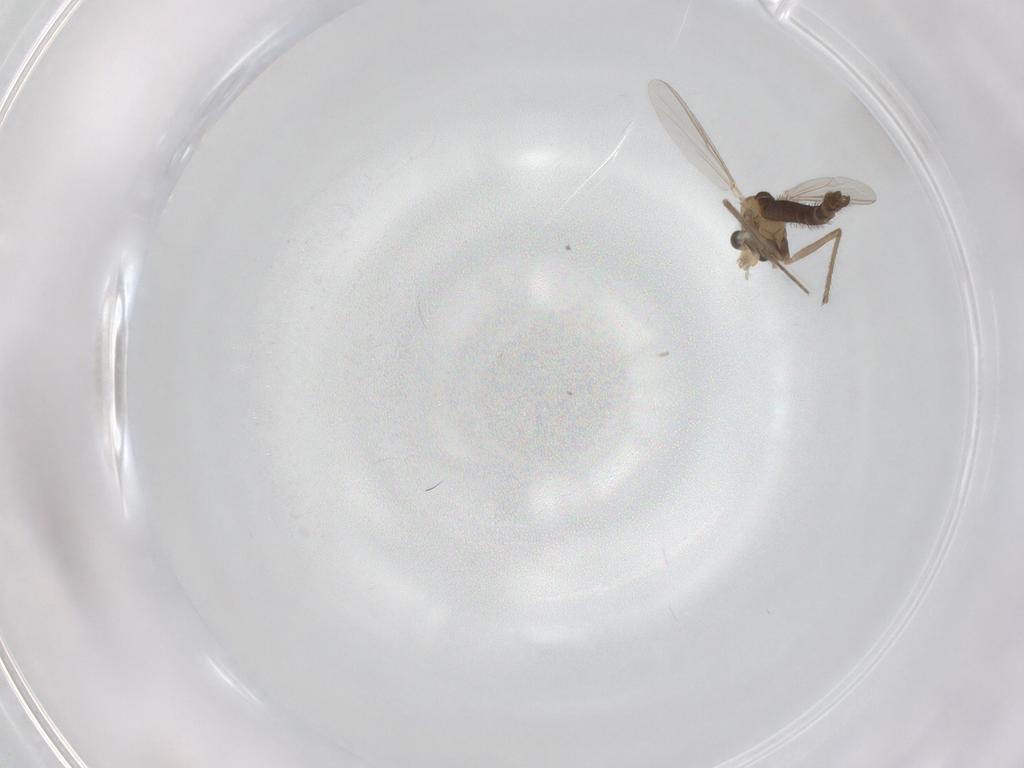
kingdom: Animalia
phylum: Arthropoda
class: Insecta
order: Diptera
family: Chironomidae
